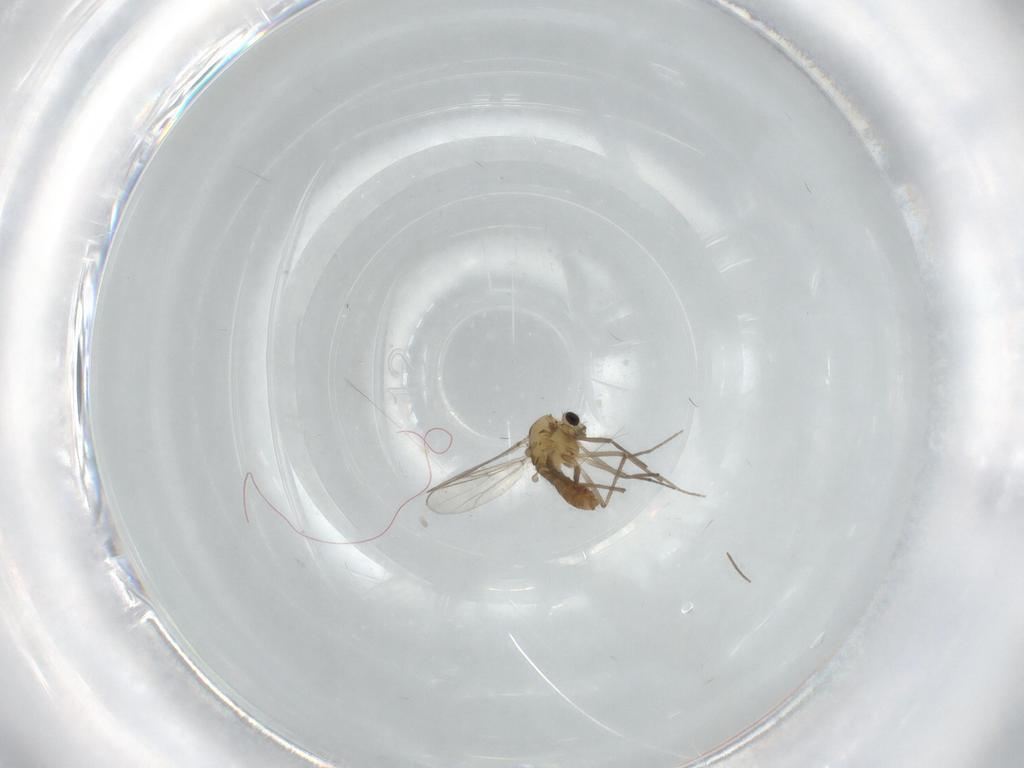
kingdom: Animalia
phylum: Arthropoda
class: Insecta
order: Diptera
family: Chironomidae
